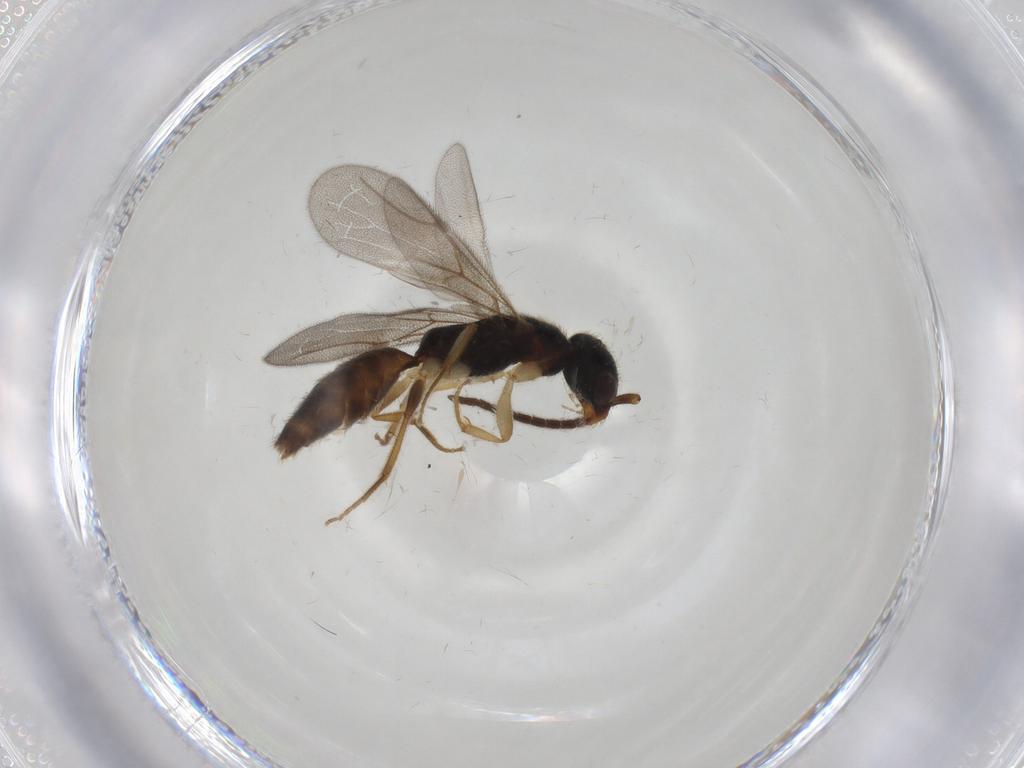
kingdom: Animalia
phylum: Arthropoda
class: Insecta
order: Hymenoptera
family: Bethylidae
